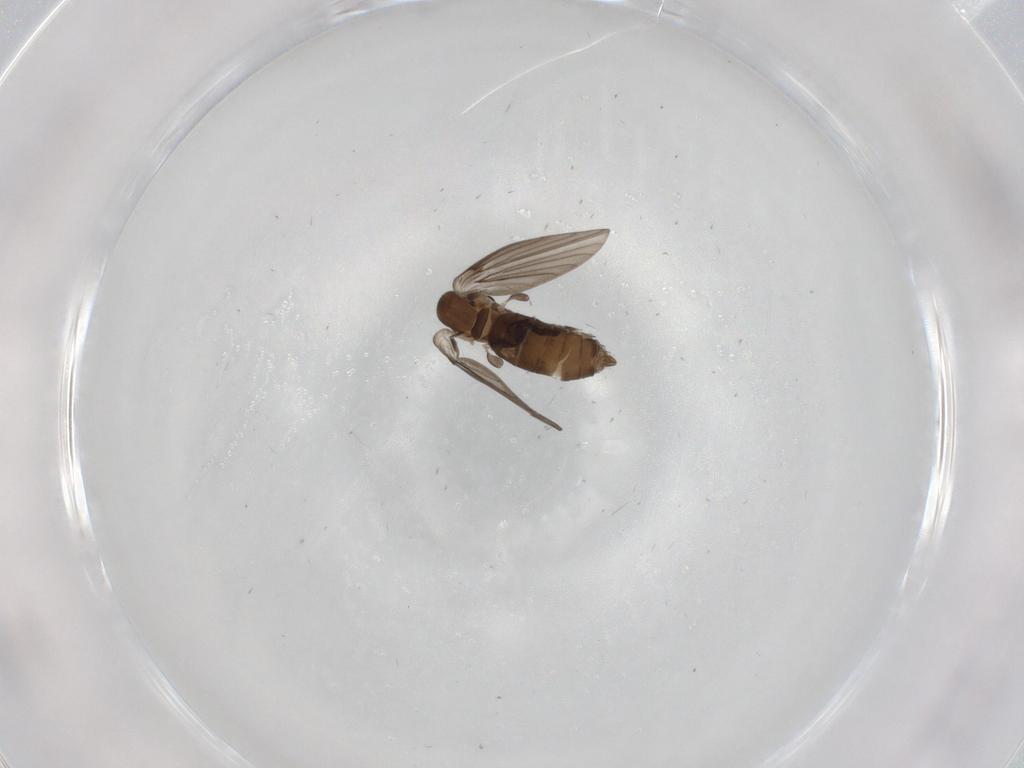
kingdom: Animalia
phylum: Arthropoda
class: Insecta
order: Diptera
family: Psychodidae
